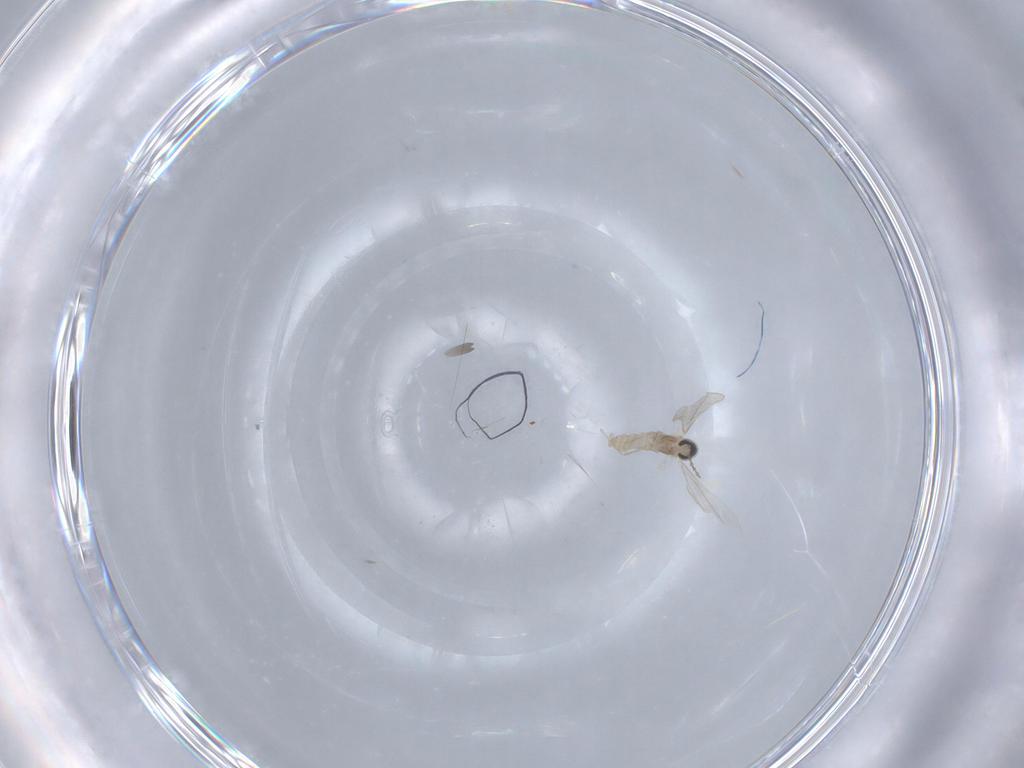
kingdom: Animalia
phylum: Arthropoda
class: Insecta
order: Diptera
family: Cecidomyiidae
